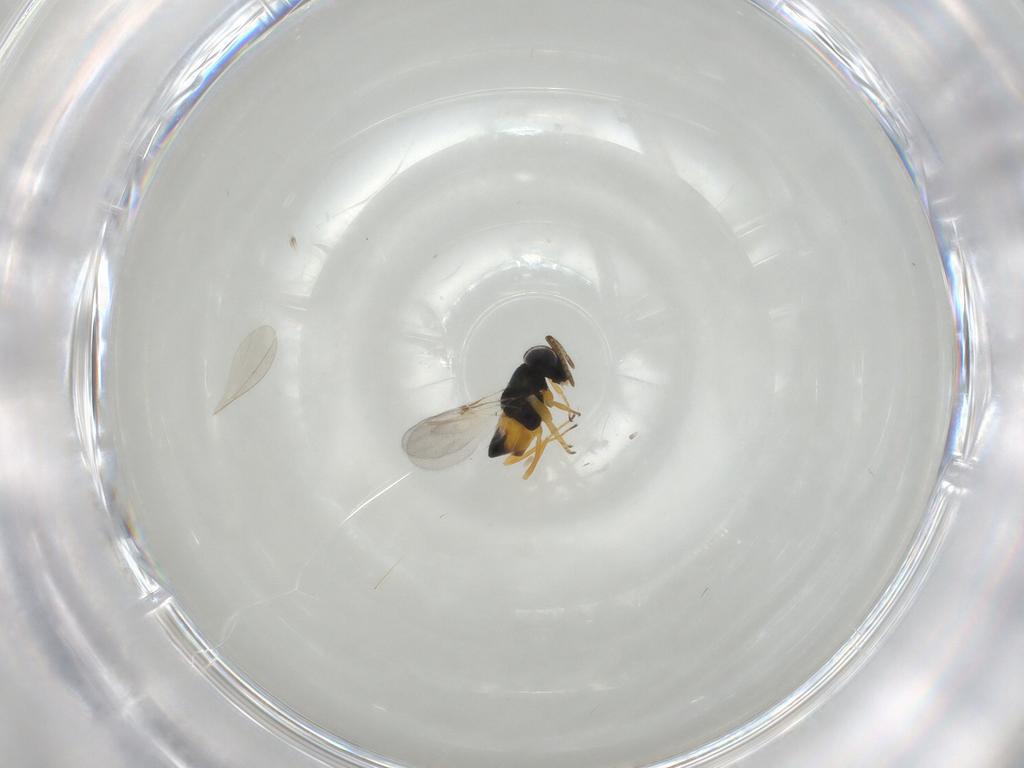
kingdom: Animalia
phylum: Arthropoda
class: Insecta
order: Hymenoptera
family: Encyrtidae
